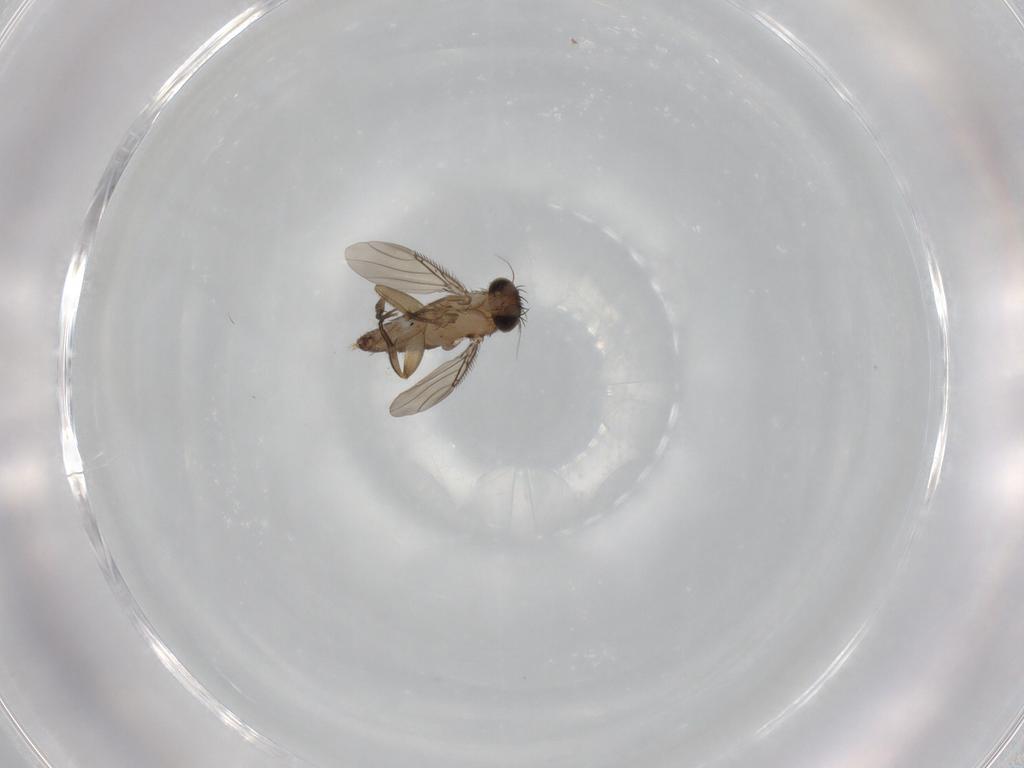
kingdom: Animalia
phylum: Arthropoda
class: Insecta
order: Diptera
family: Phoridae
